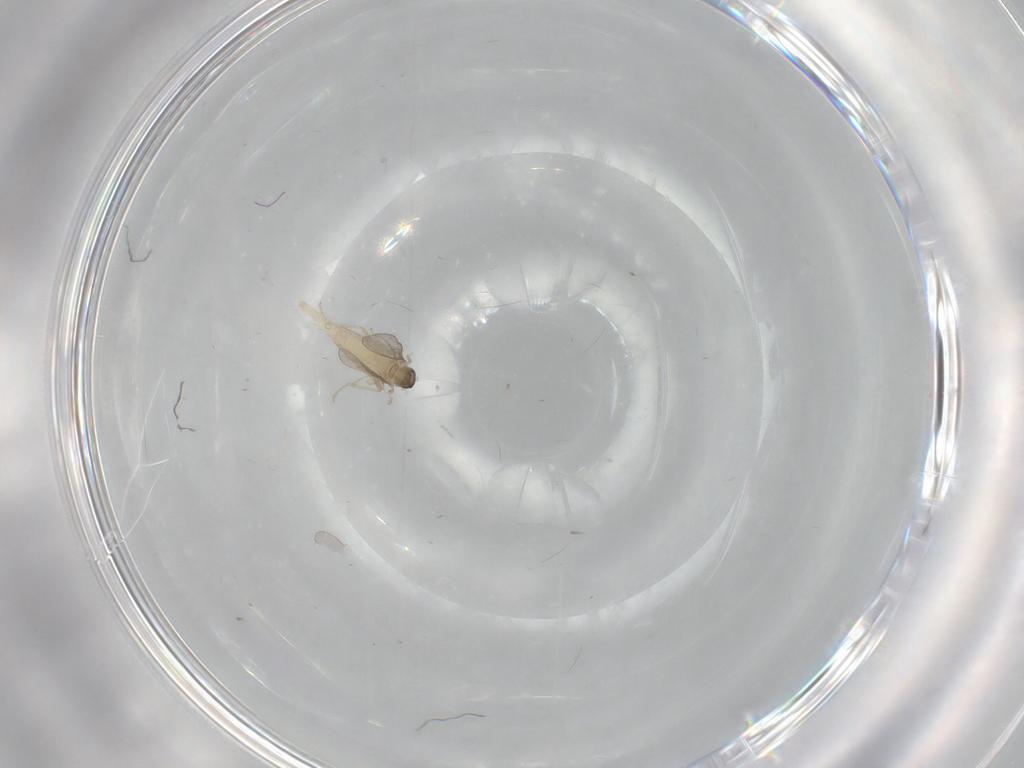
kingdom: Animalia
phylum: Arthropoda
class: Insecta
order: Diptera
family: Cecidomyiidae
